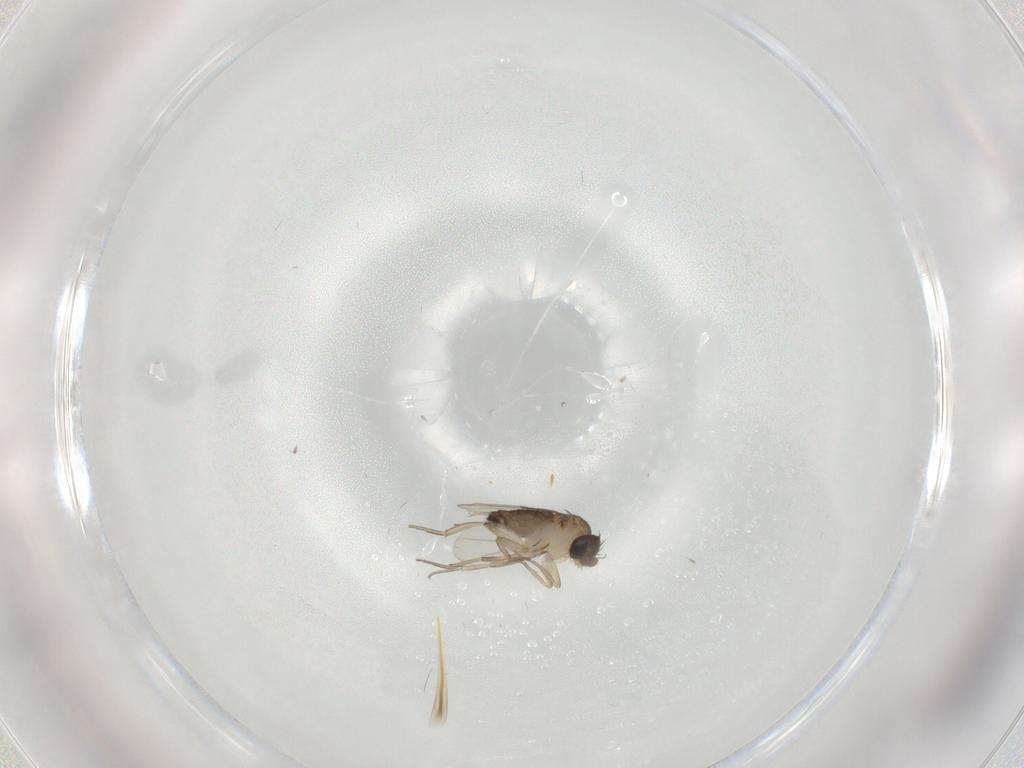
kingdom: Animalia
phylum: Arthropoda
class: Insecta
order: Diptera
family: Phoridae
